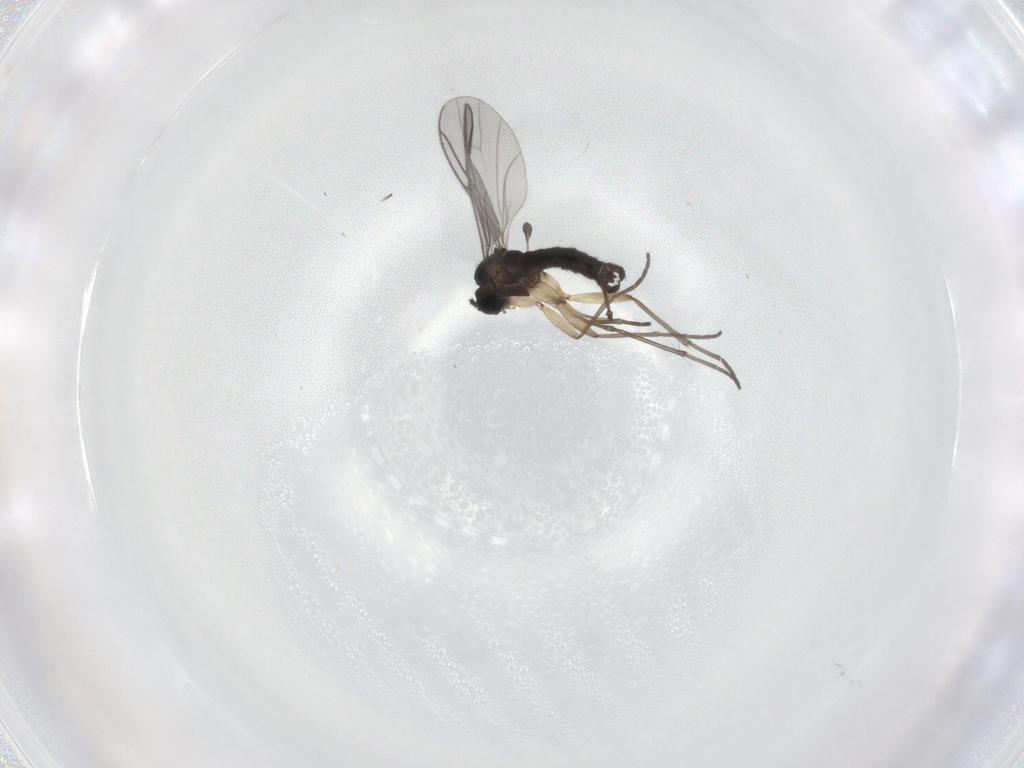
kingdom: Animalia
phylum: Arthropoda
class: Insecta
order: Diptera
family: Sciaridae
